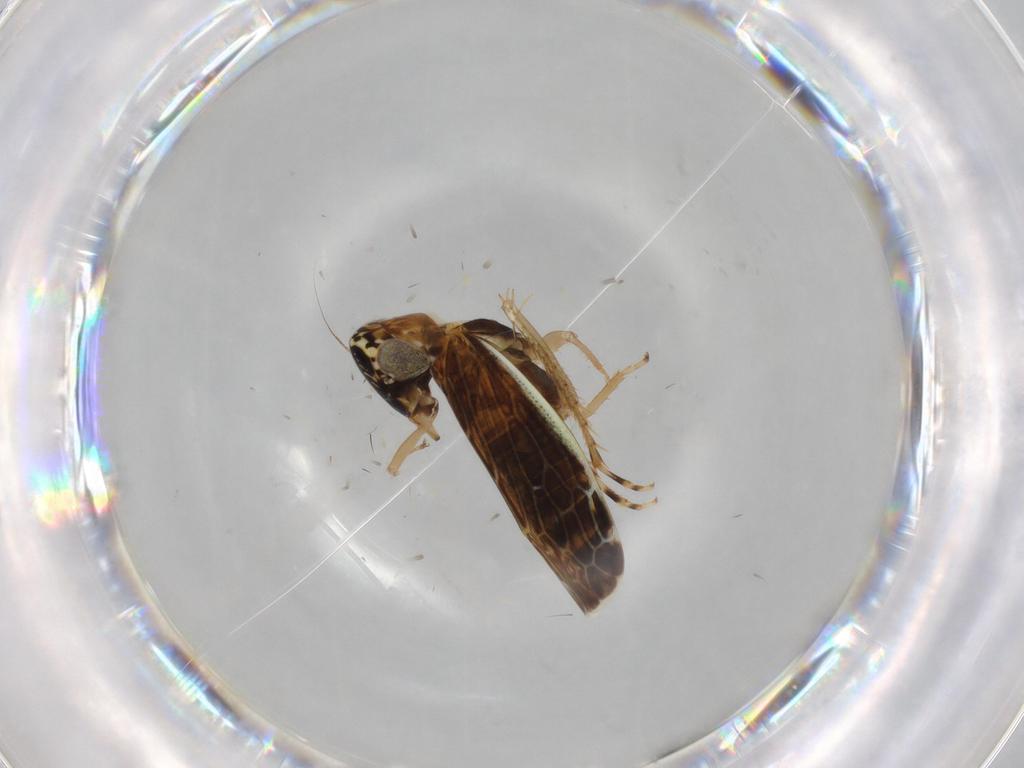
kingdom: Animalia
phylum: Arthropoda
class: Insecta
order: Hemiptera
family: Cicadellidae
